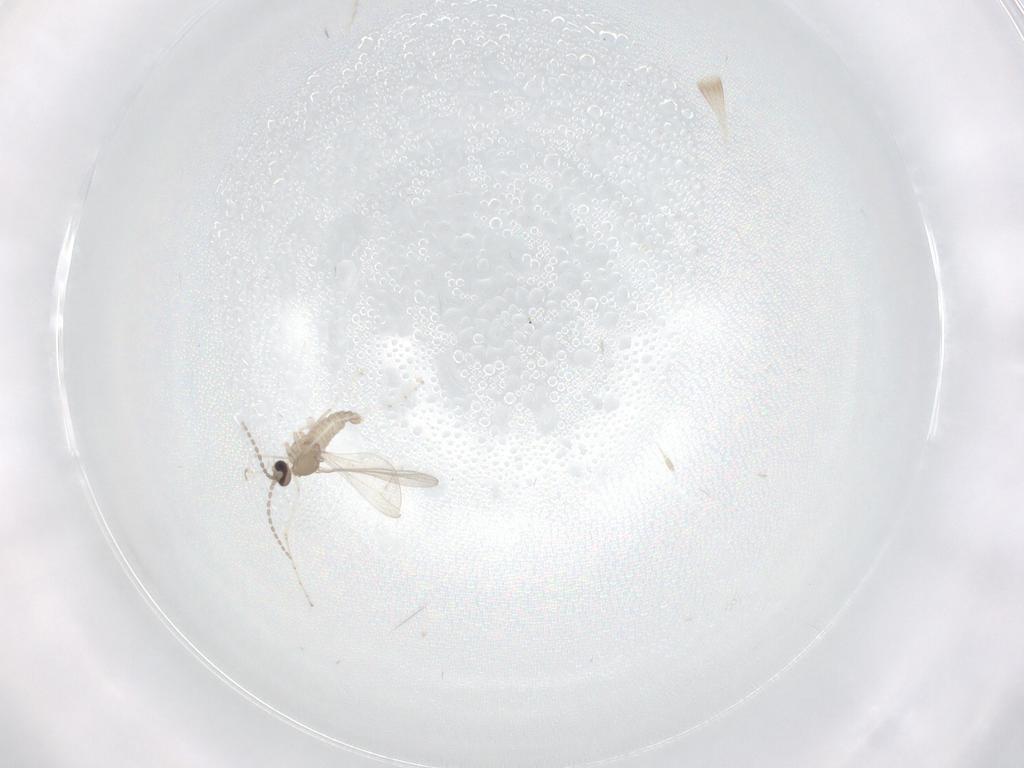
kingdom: Animalia
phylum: Arthropoda
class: Insecta
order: Diptera
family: Cecidomyiidae
